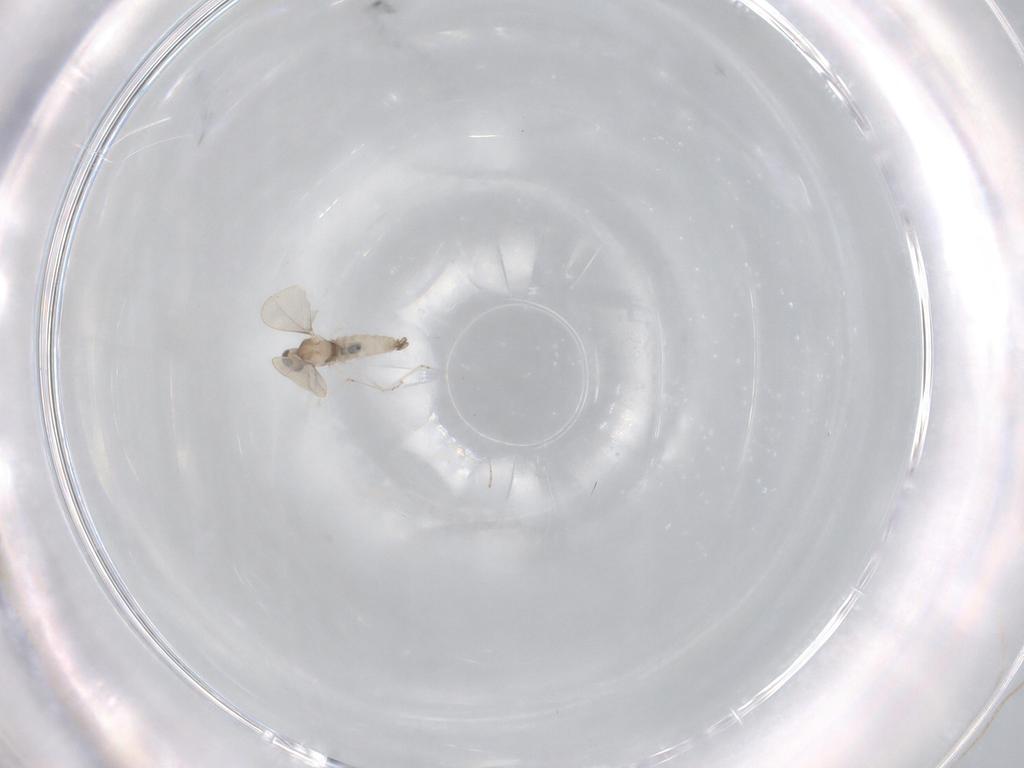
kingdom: Animalia
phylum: Arthropoda
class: Insecta
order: Diptera
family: Cecidomyiidae
